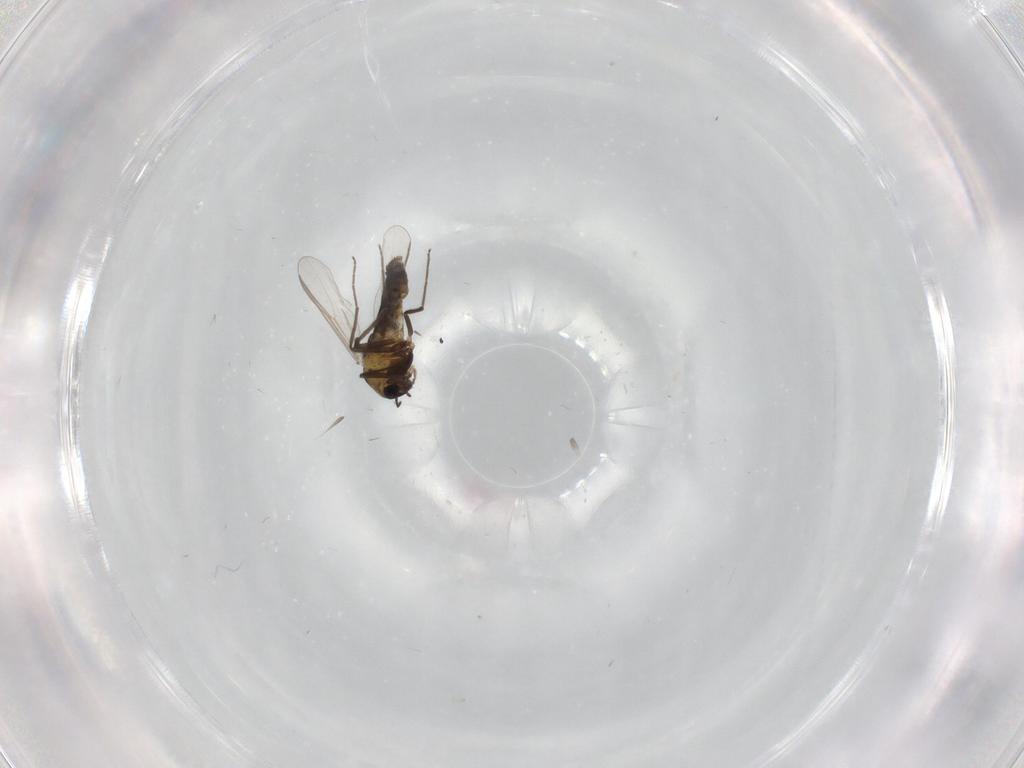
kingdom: Animalia
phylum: Arthropoda
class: Insecta
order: Diptera
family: Chironomidae
